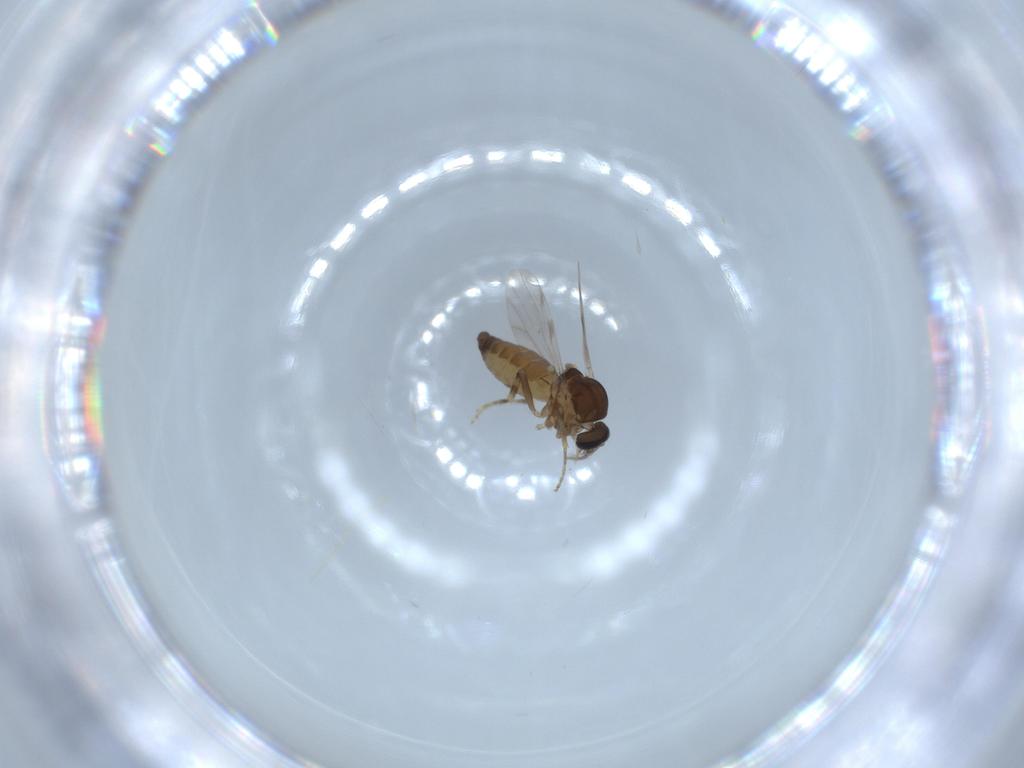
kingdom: Animalia
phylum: Arthropoda
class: Insecta
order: Diptera
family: Ceratopogonidae
